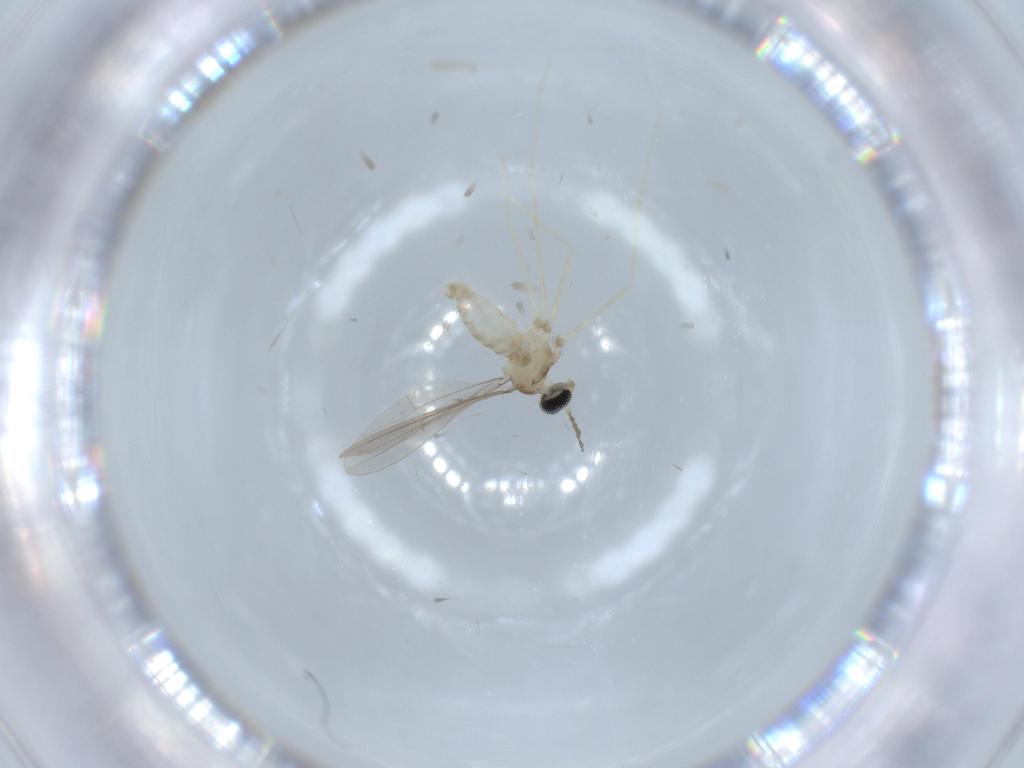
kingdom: Animalia
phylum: Arthropoda
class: Insecta
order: Diptera
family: Cecidomyiidae
